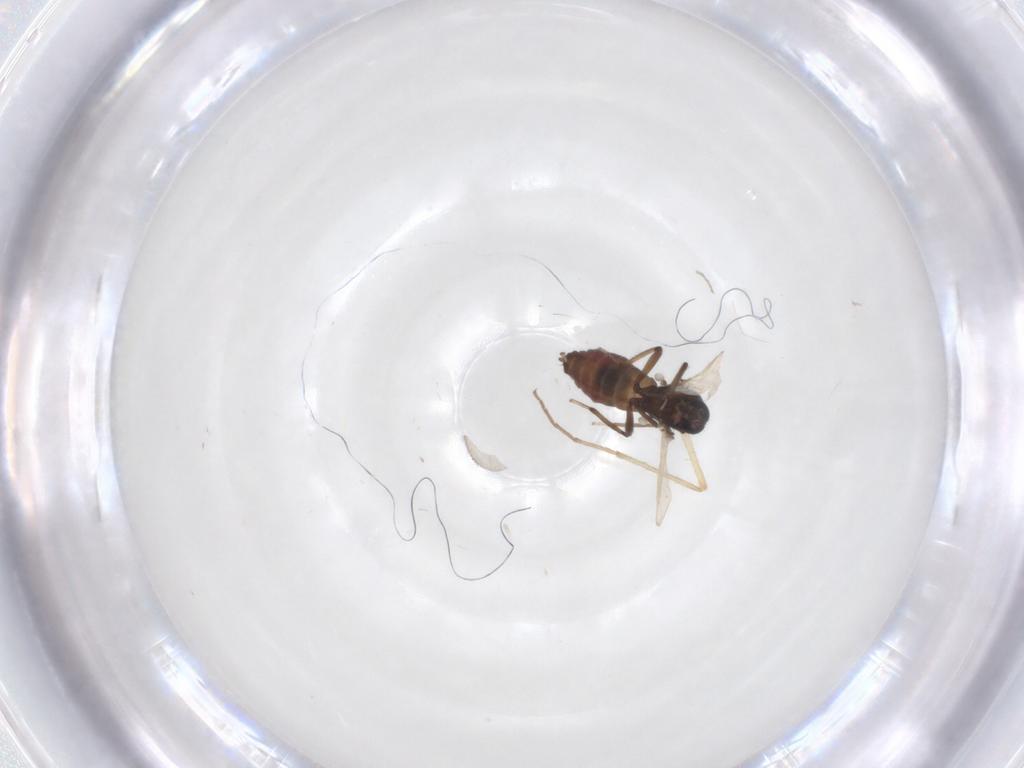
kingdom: Animalia
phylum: Arthropoda
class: Insecta
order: Diptera
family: Ceratopogonidae
